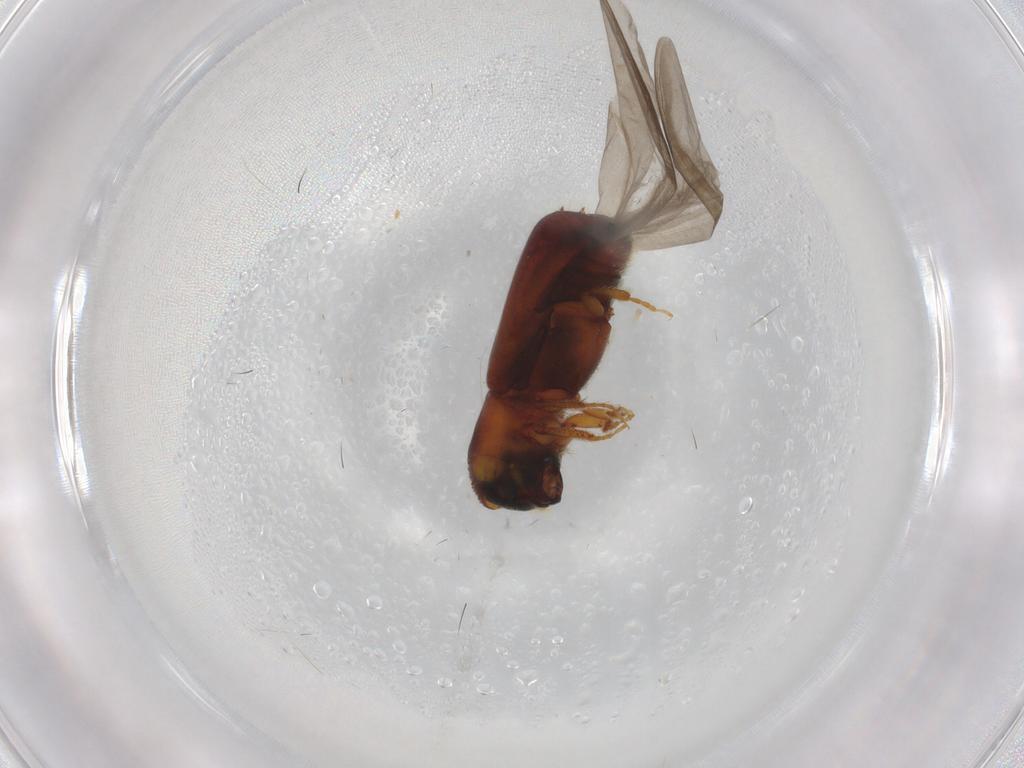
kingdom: Animalia
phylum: Arthropoda
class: Insecta
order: Coleoptera
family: Curculionidae
